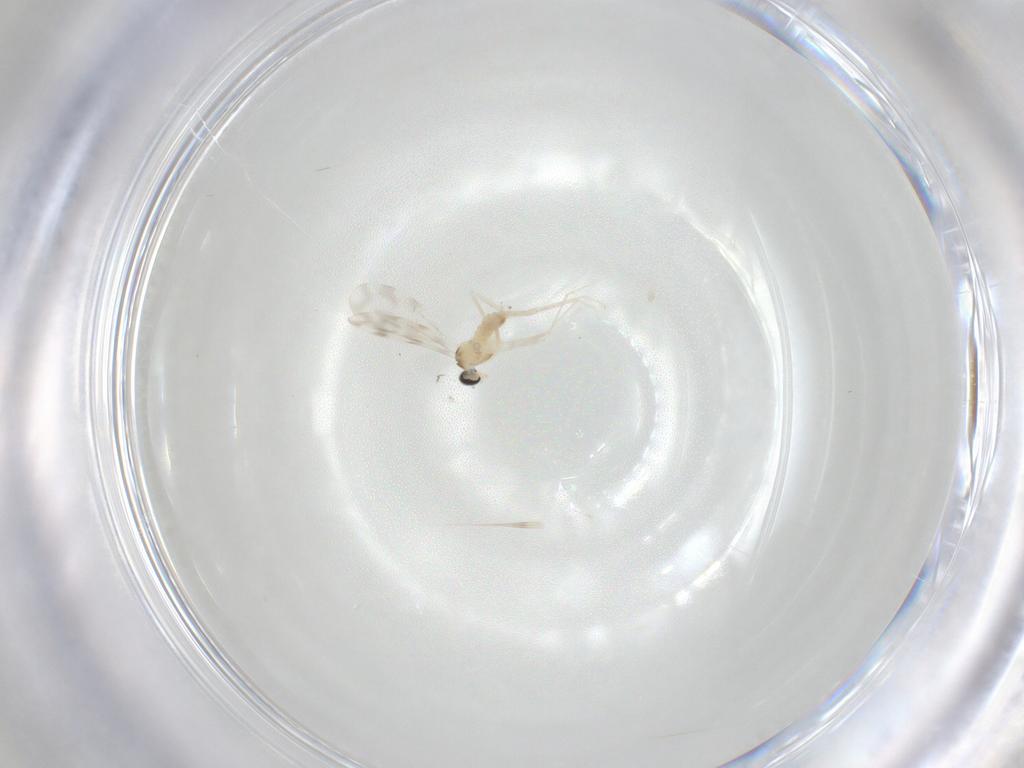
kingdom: Animalia
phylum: Arthropoda
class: Insecta
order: Diptera
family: Cecidomyiidae
